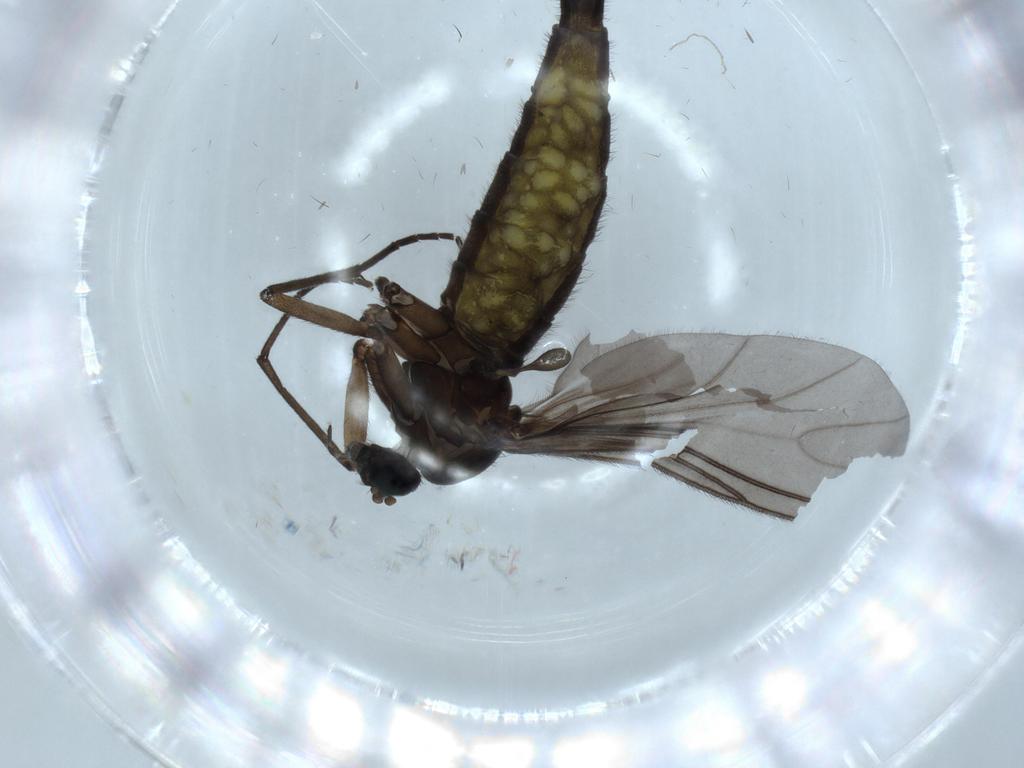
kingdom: Animalia
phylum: Arthropoda
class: Insecta
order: Diptera
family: Sciaridae
